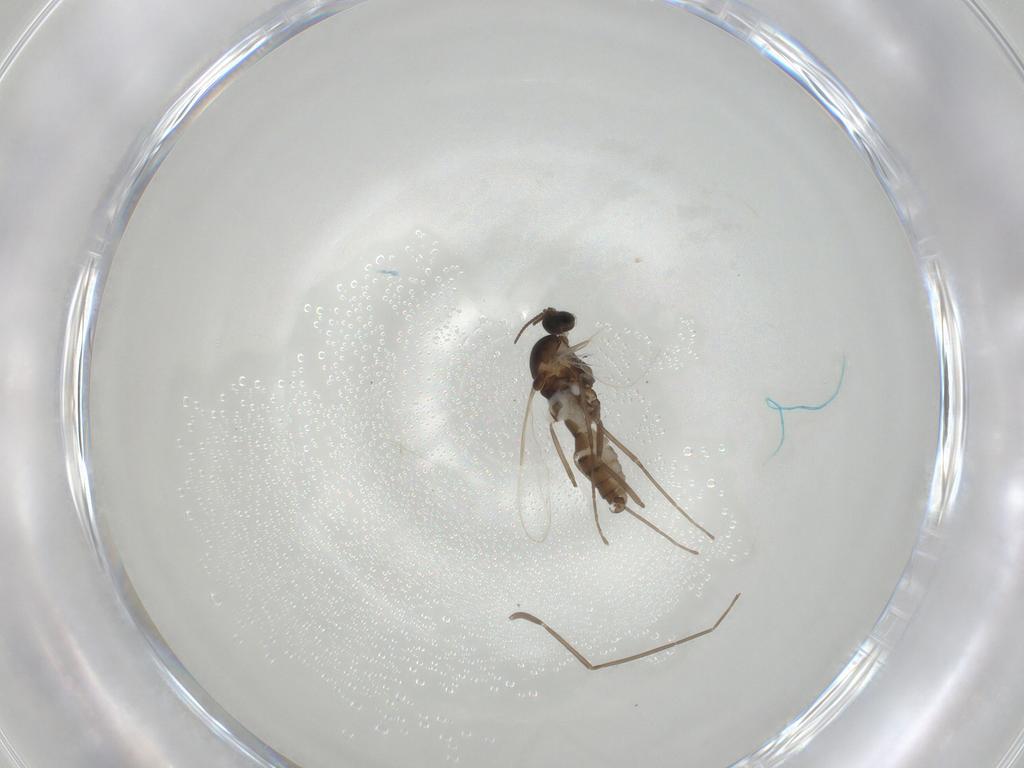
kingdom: Animalia
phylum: Arthropoda
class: Insecta
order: Diptera
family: Cecidomyiidae
